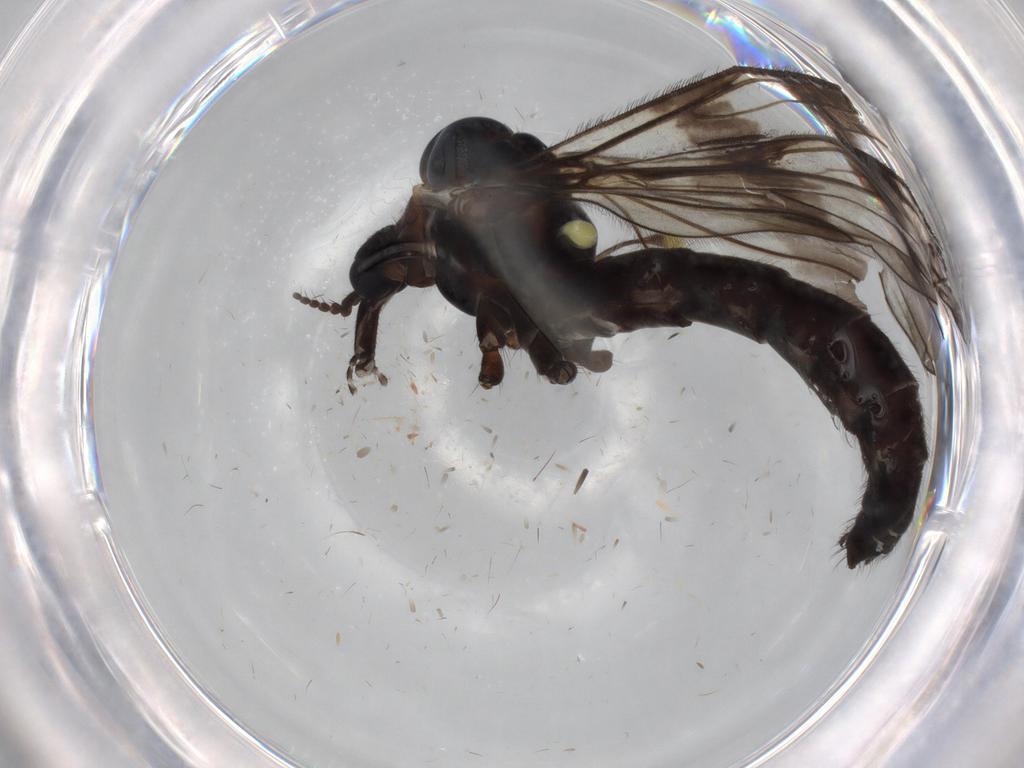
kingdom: Animalia
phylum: Arthropoda
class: Insecta
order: Diptera
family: Limoniidae
